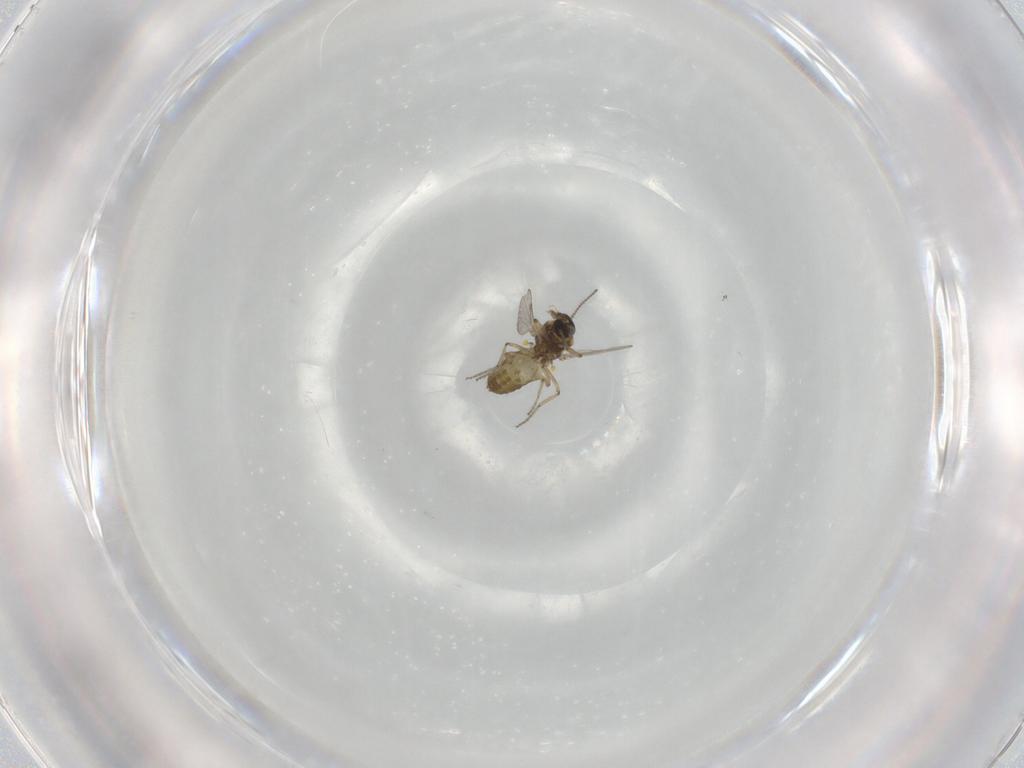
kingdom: Animalia
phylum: Arthropoda
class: Insecta
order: Diptera
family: Ceratopogonidae
